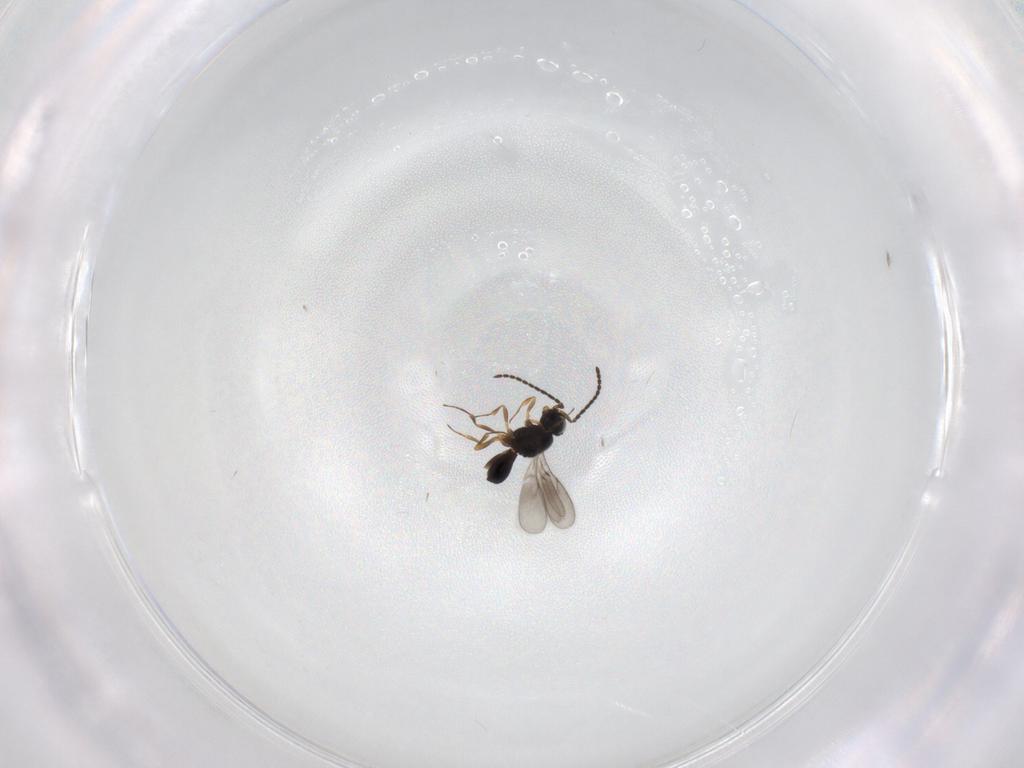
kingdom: Animalia
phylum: Arthropoda
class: Insecta
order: Hymenoptera
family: Scelionidae
